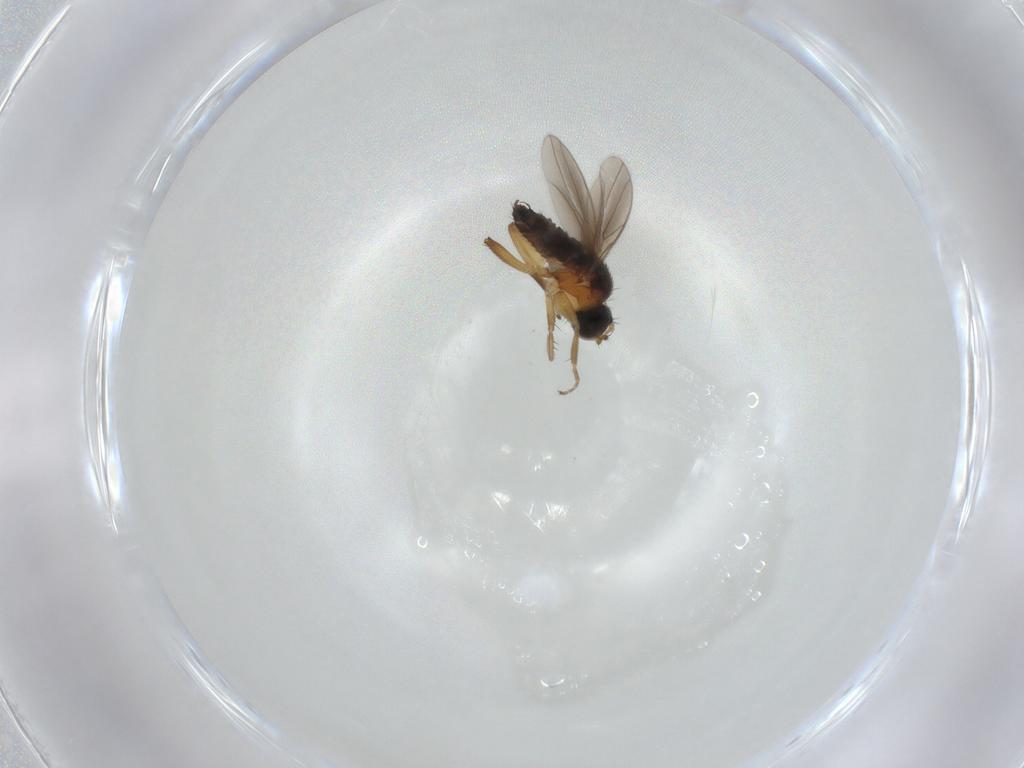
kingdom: Animalia
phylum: Arthropoda
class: Insecta
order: Diptera
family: Hybotidae
